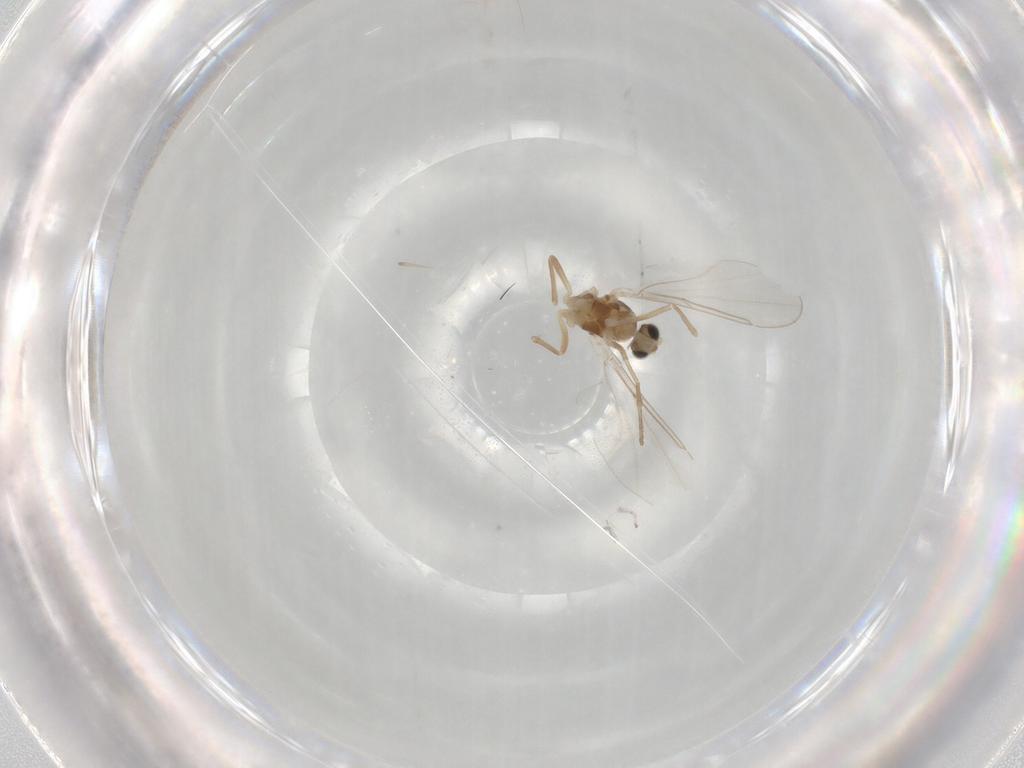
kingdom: Animalia
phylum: Arthropoda
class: Insecta
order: Diptera
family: Cecidomyiidae
